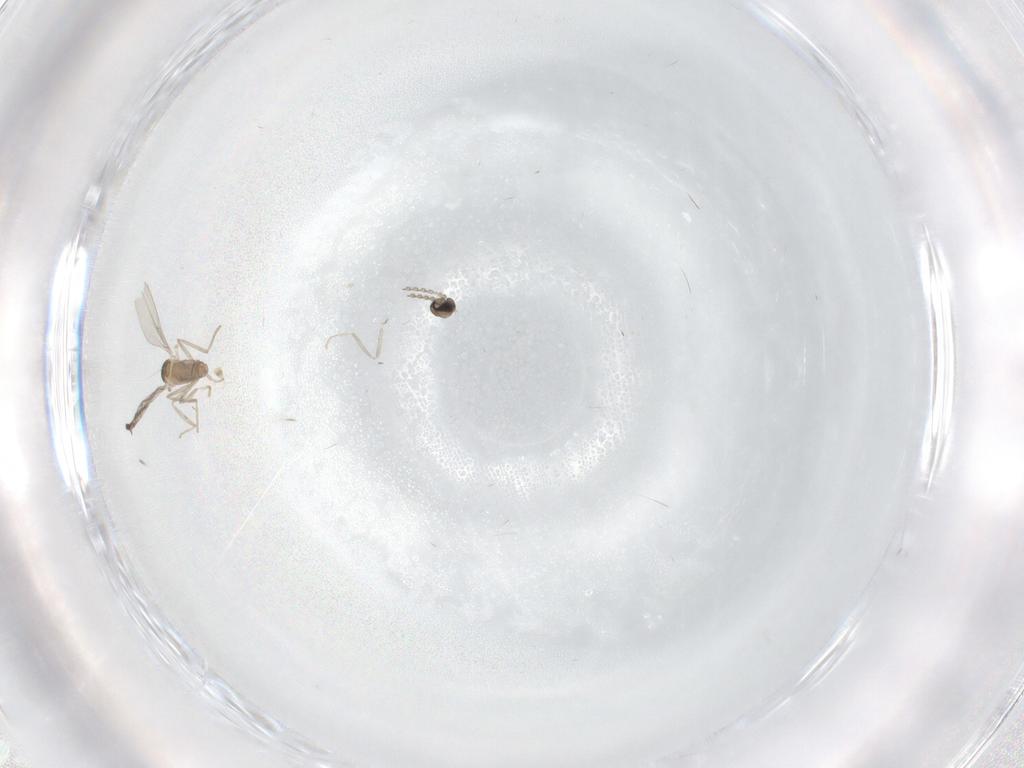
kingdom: Animalia
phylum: Arthropoda
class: Insecta
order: Diptera
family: Cecidomyiidae
